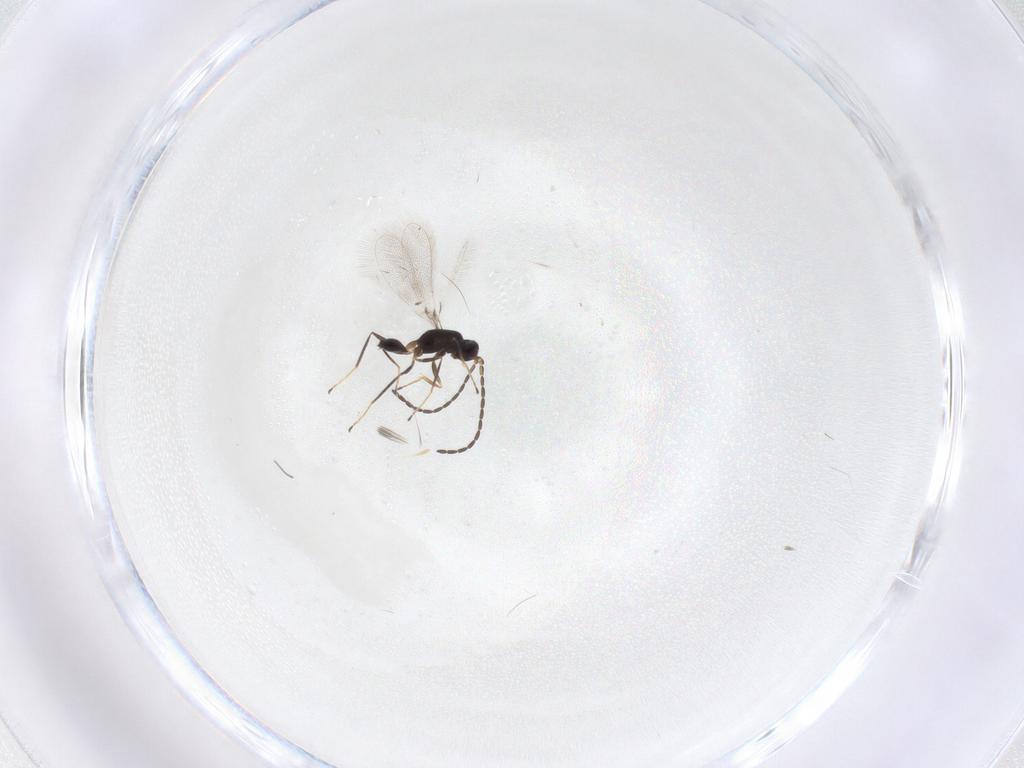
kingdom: Animalia
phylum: Arthropoda
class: Insecta
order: Hymenoptera
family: Mymaridae
